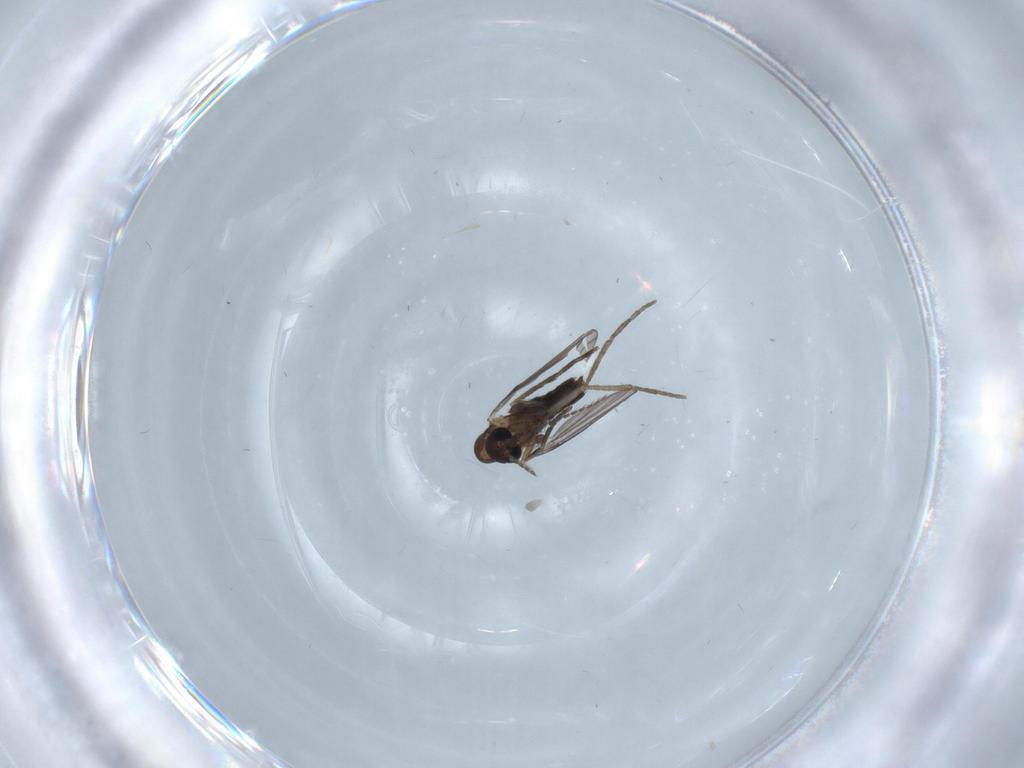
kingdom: Animalia
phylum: Arthropoda
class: Insecta
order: Diptera
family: Psychodidae
